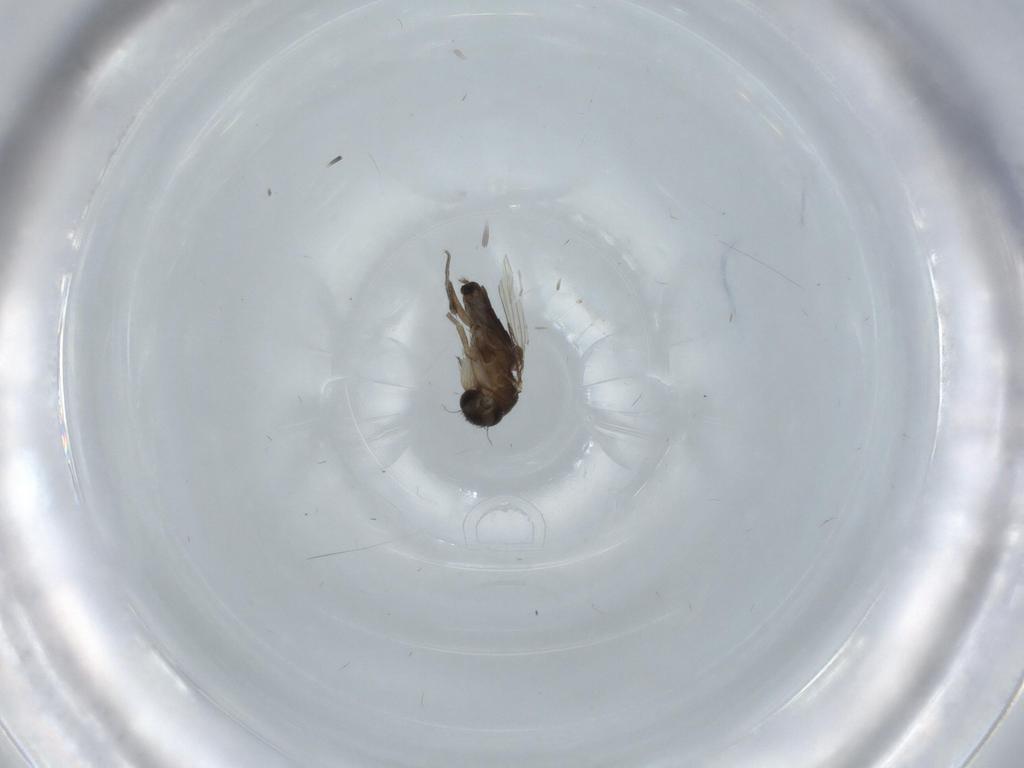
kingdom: Animalia
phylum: Arthropoda
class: Insecta
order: Diptera
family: Phoridae
